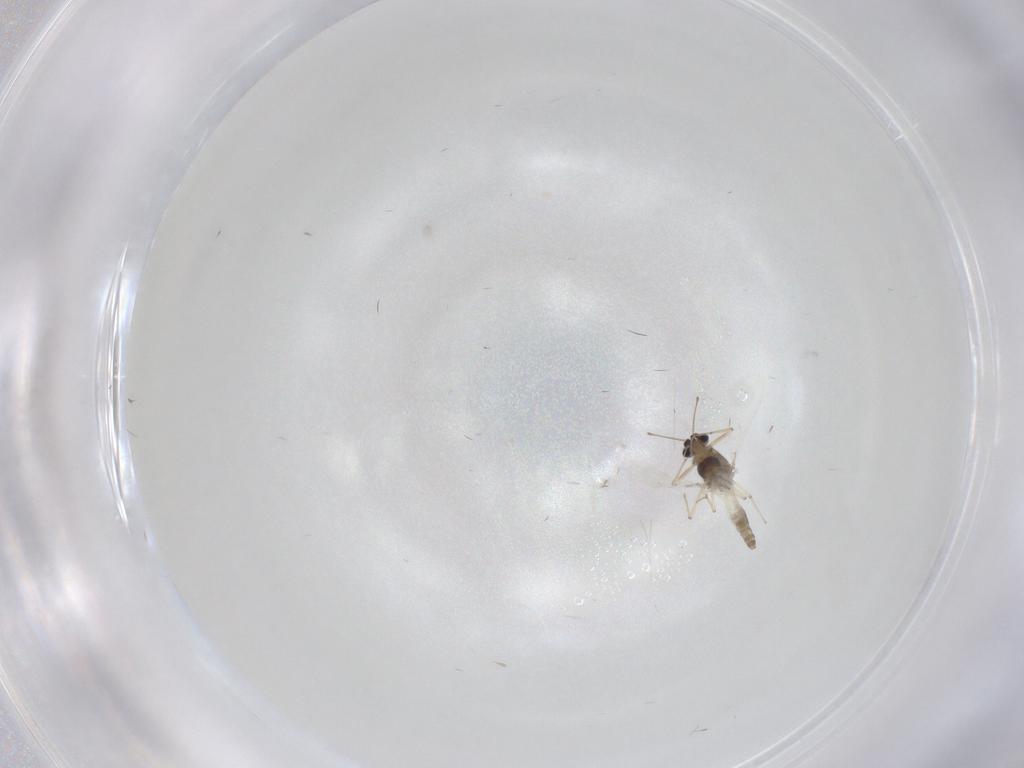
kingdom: Animalia
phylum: Arthropoda
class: Insecta
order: Diptera
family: Chironomidae
